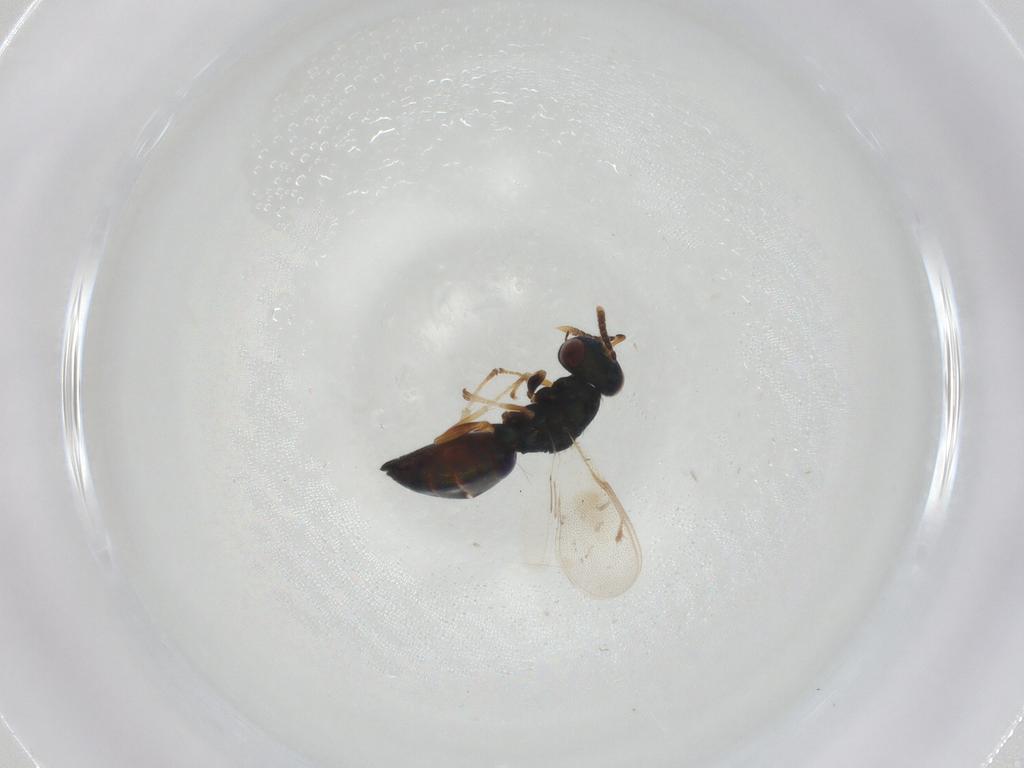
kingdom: Animalia
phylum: Arthropoda
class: Insecta
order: Hymenoptera
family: Pteromalidae
